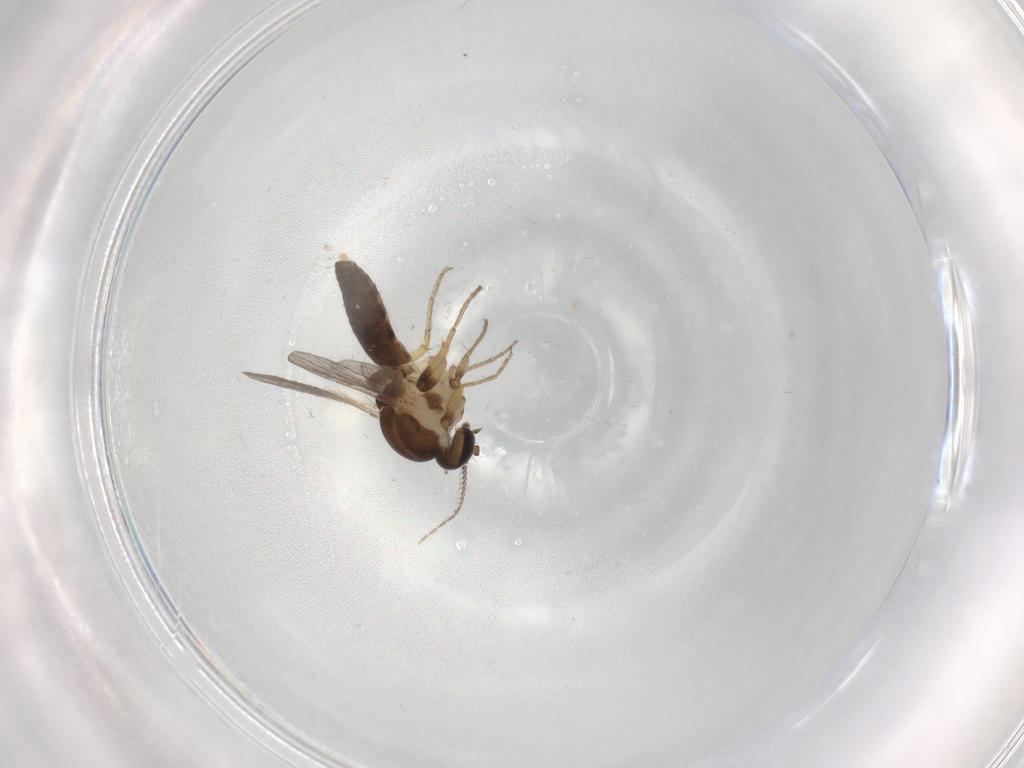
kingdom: Animalia
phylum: Arthropoda
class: Insecta
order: Diptera
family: Ceratopogonidae
